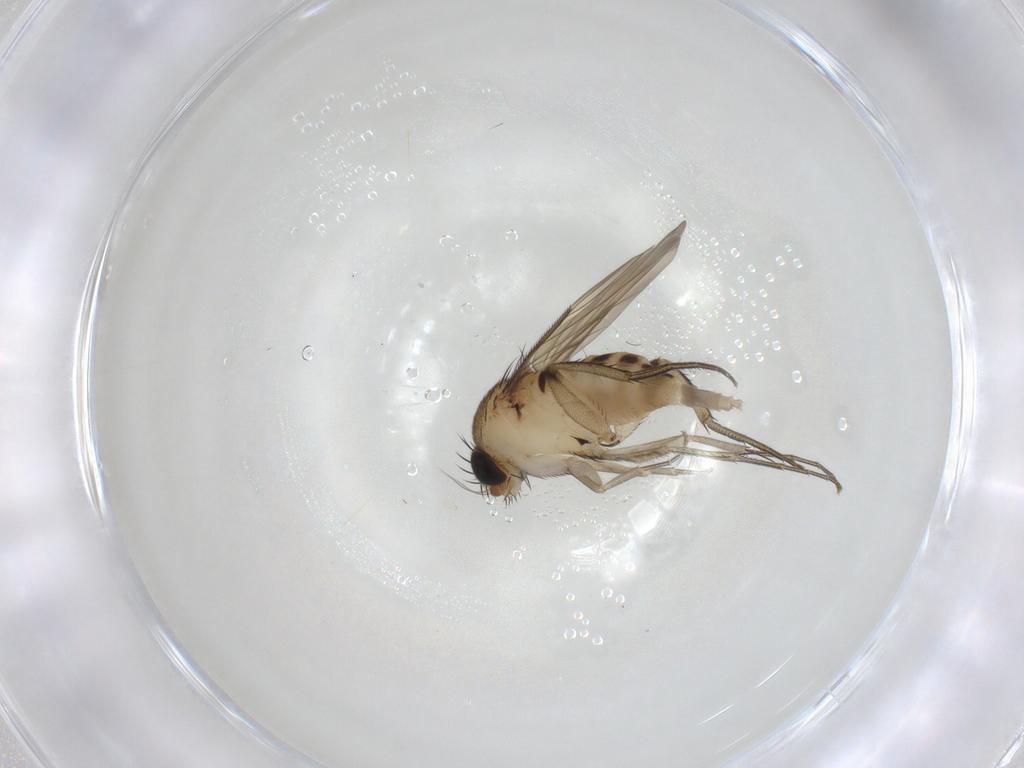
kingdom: Animalia
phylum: Arthropoda
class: Insecta
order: Diptera
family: Phoridae
